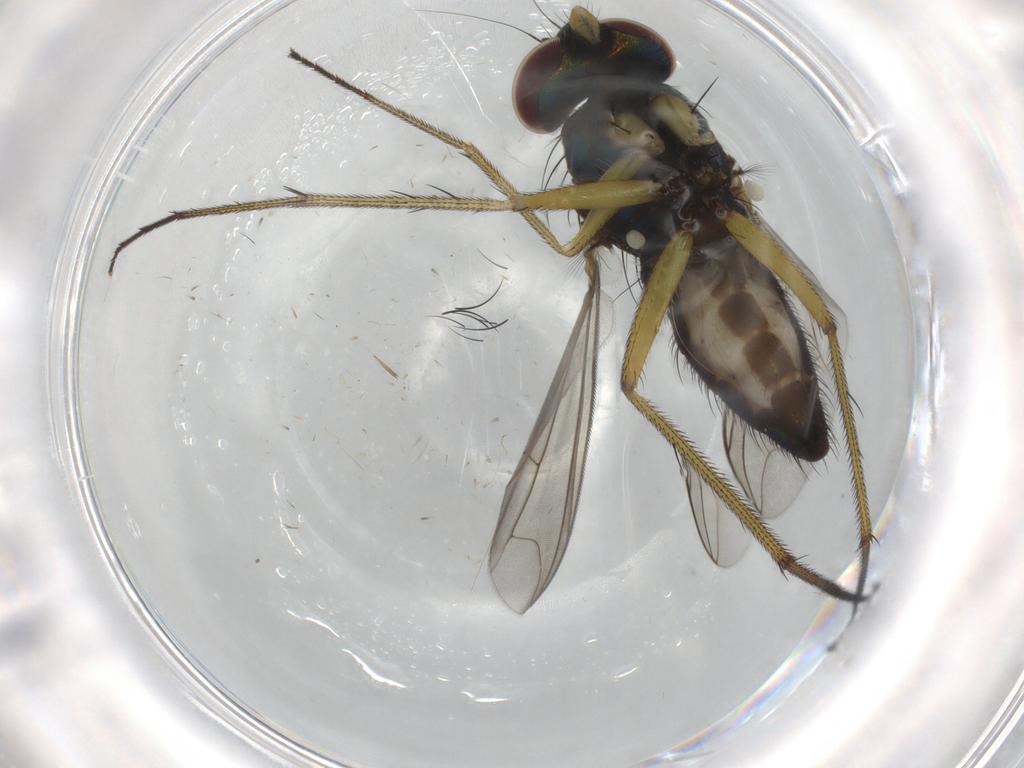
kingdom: Animalia
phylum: Arthropoda
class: Insecta
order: Diptera
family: Dolichopodidae
